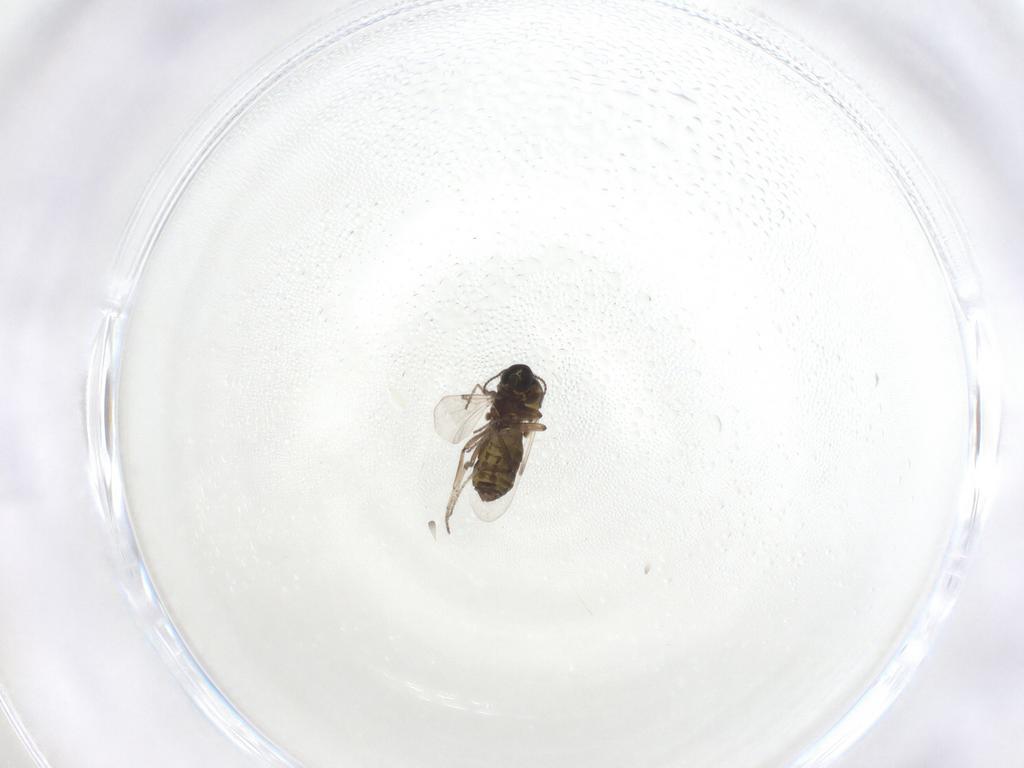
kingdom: Animalia
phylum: Arthropoda
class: Insecta
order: Diptera
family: Ceratopogonidae
